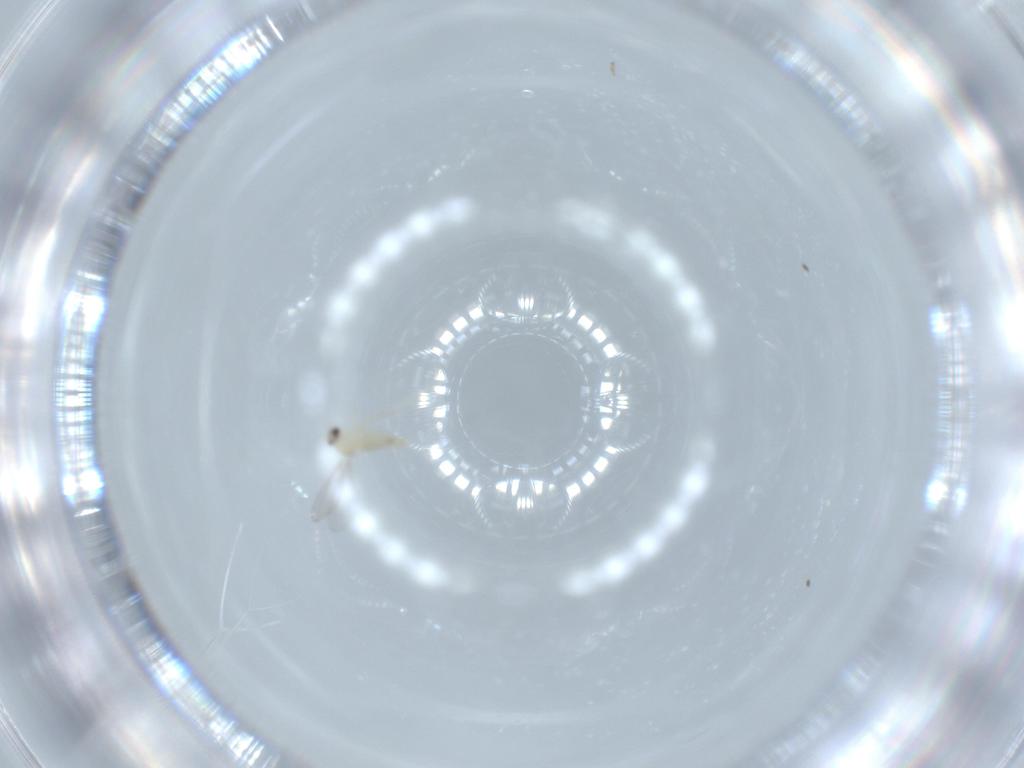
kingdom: Animalia
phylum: Arthropoda
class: Insecta
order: Diptera
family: Cecidomyiidae
